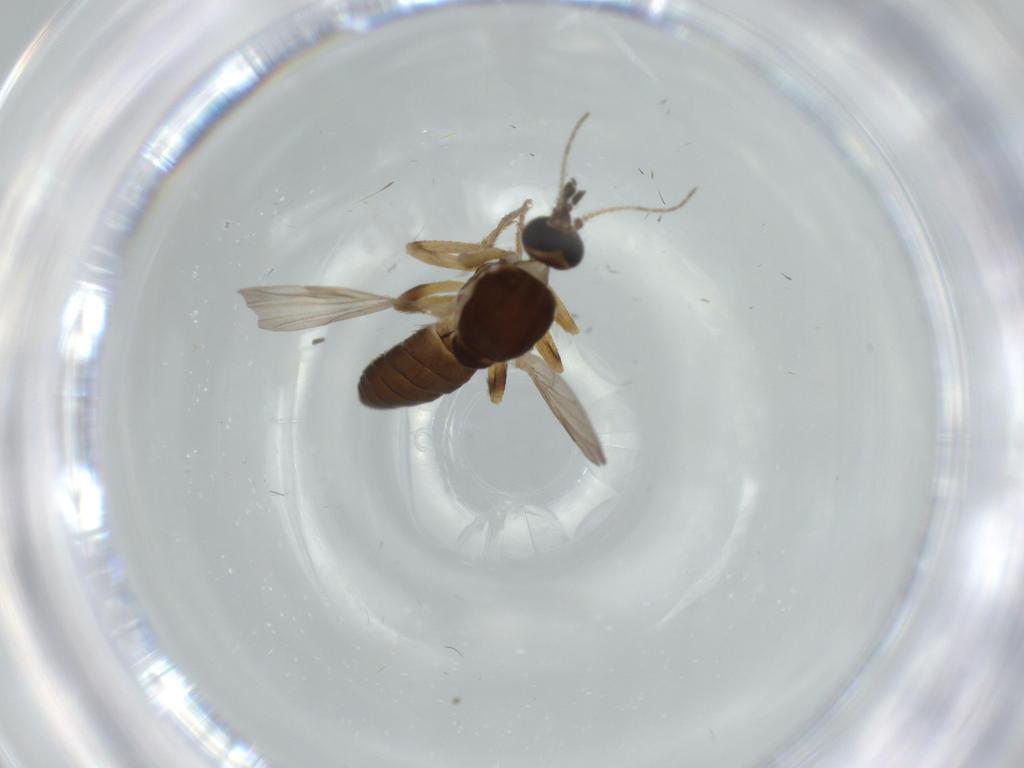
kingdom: Animalia
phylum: Arthropoda
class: Insecta
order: Diptera
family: Ceratopogonidae
